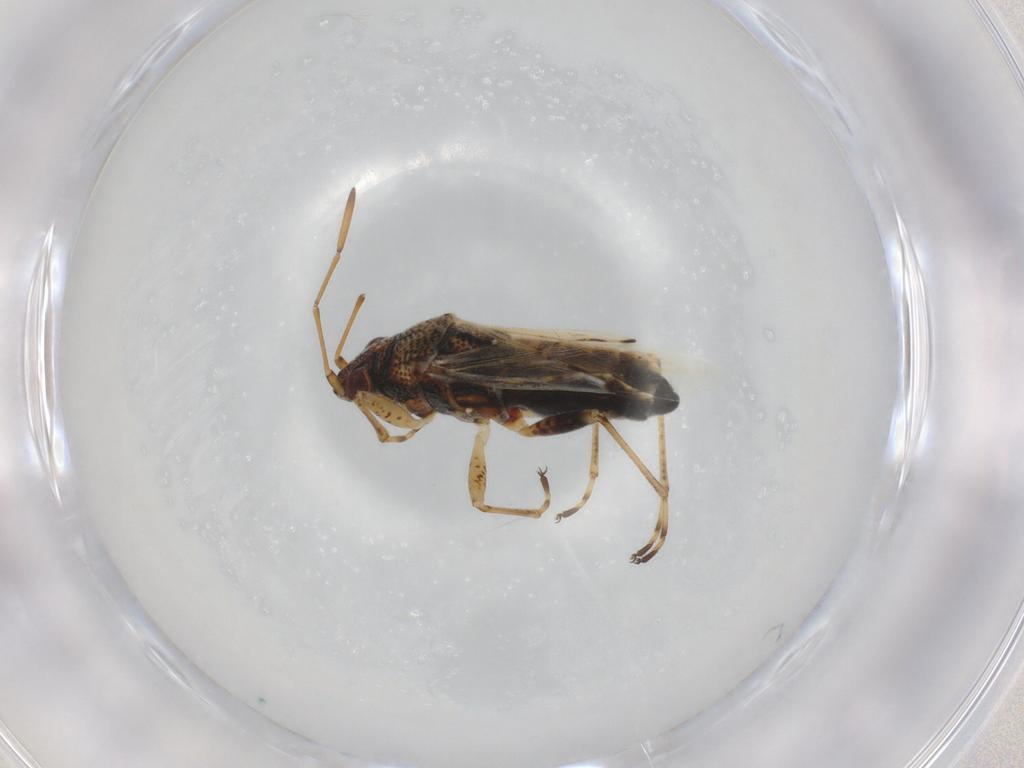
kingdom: Animalia
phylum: Arthropoda
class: Insecta
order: Hemiptera
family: Lygaeidae
